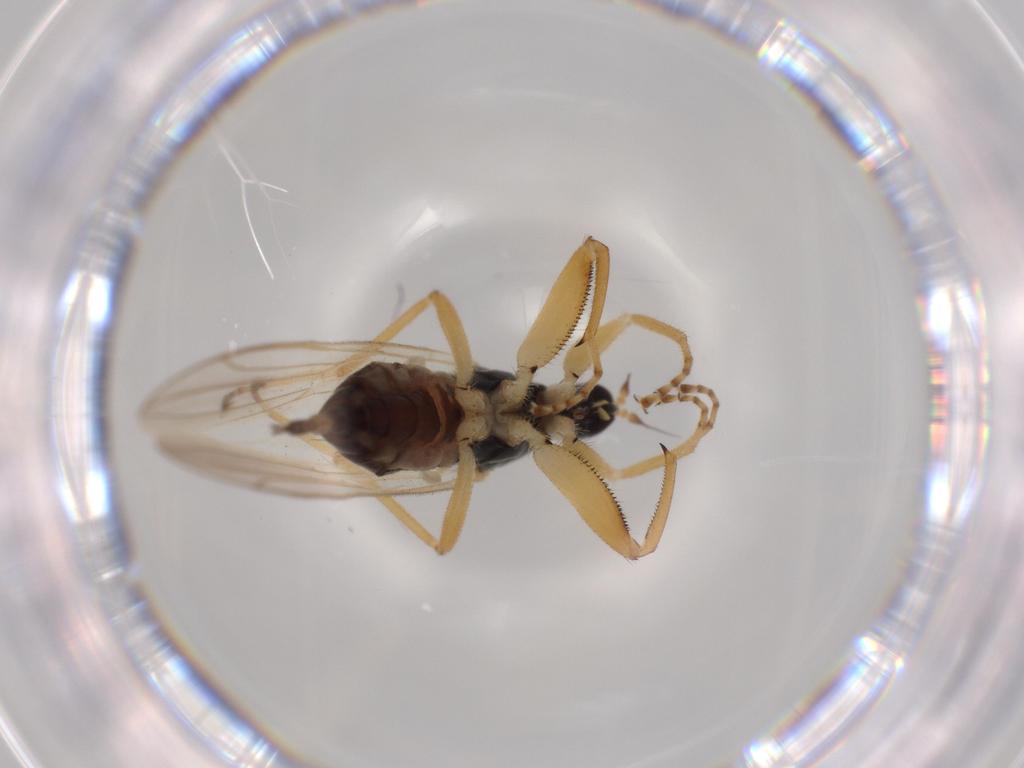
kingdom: Animalia
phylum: Arthropoda
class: Insecta
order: Diptera
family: Hybotidae
